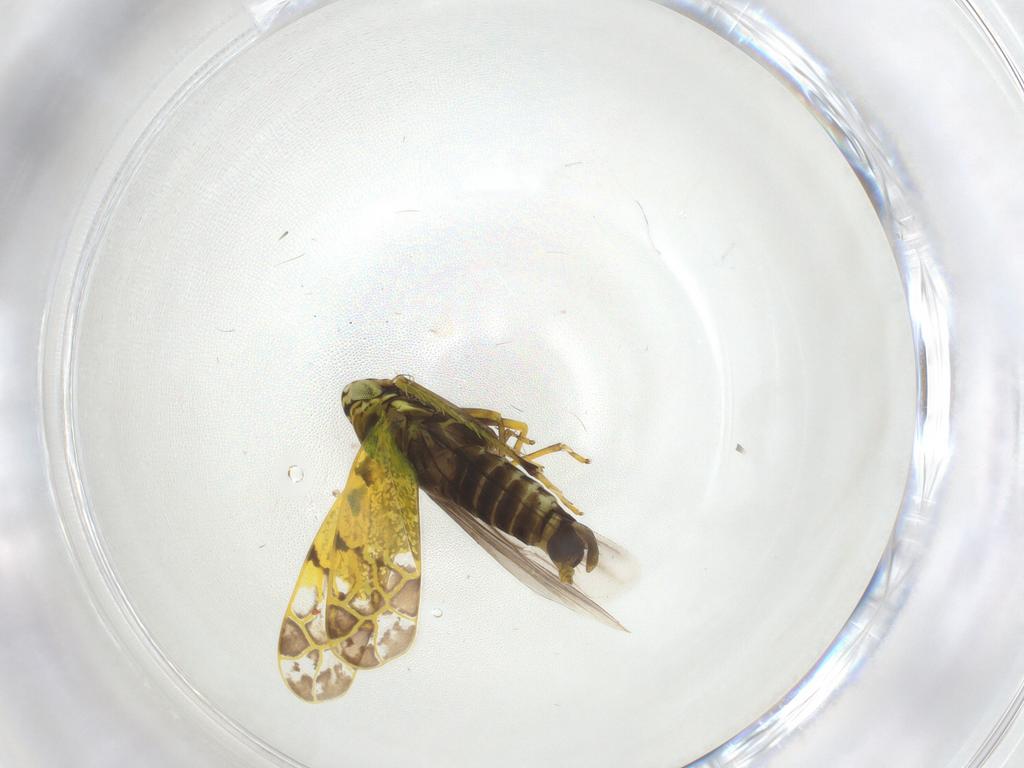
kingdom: Animalia
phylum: Arthropoda
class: Insecta
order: Hemiptera
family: Cicadellidae
